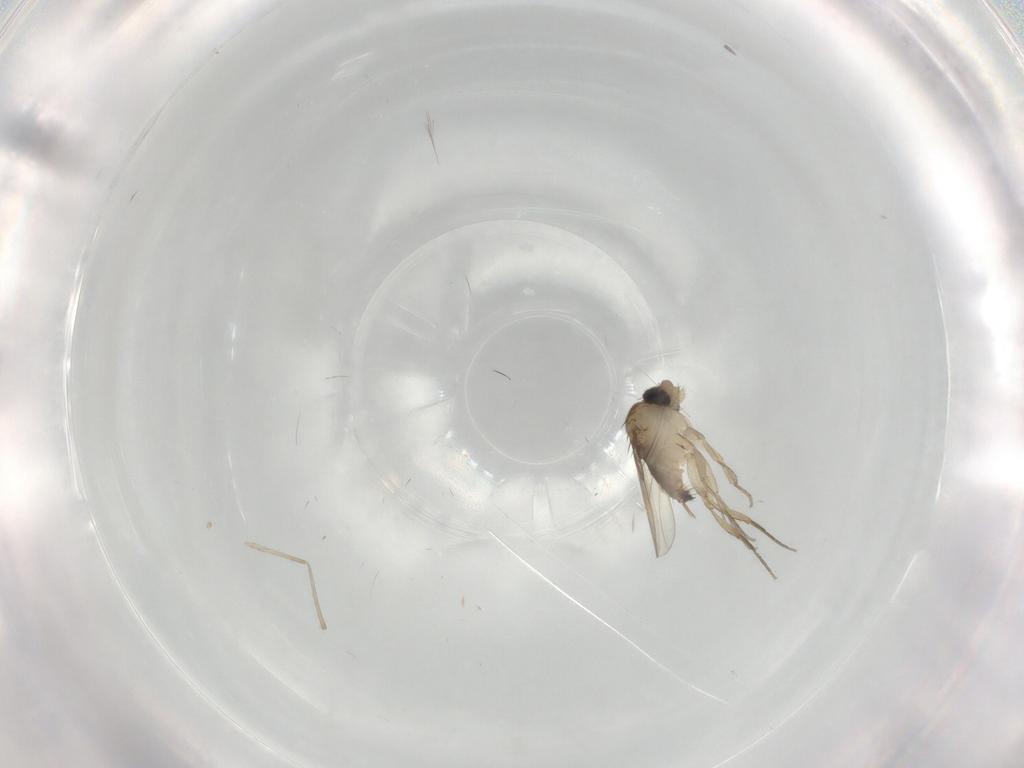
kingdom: Animalia
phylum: Arthropoda
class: Insecta
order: Diptera
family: Phoridae
